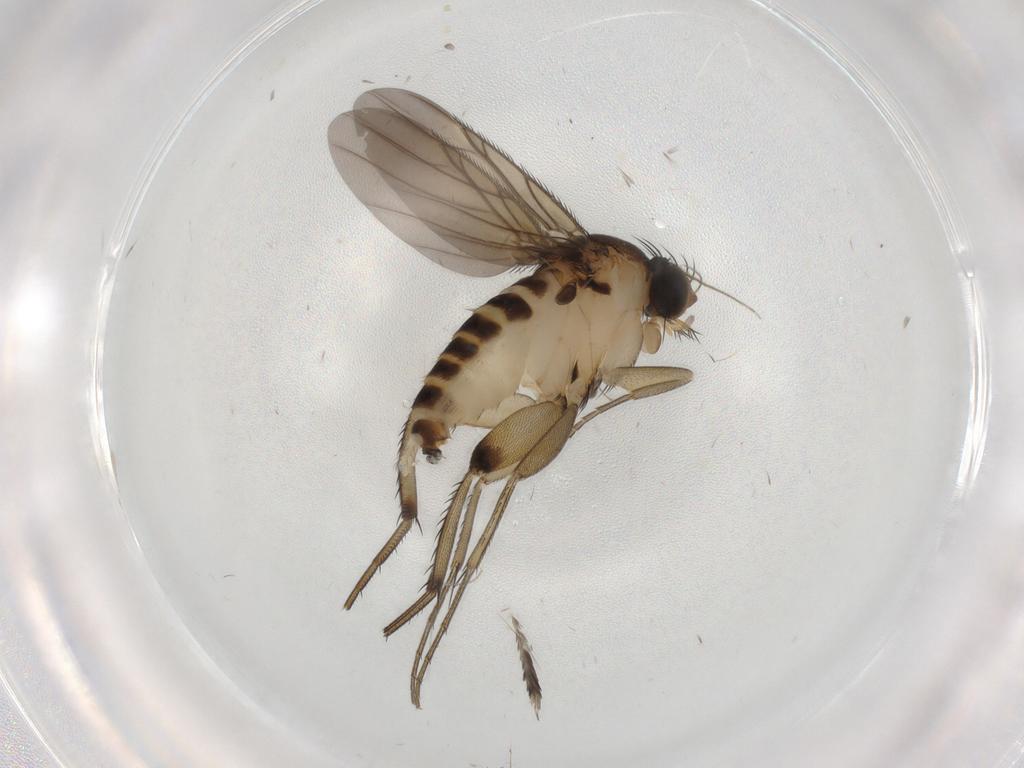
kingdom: Animalia
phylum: Arthropoda
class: Insecta
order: Diptera
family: Phoridae
